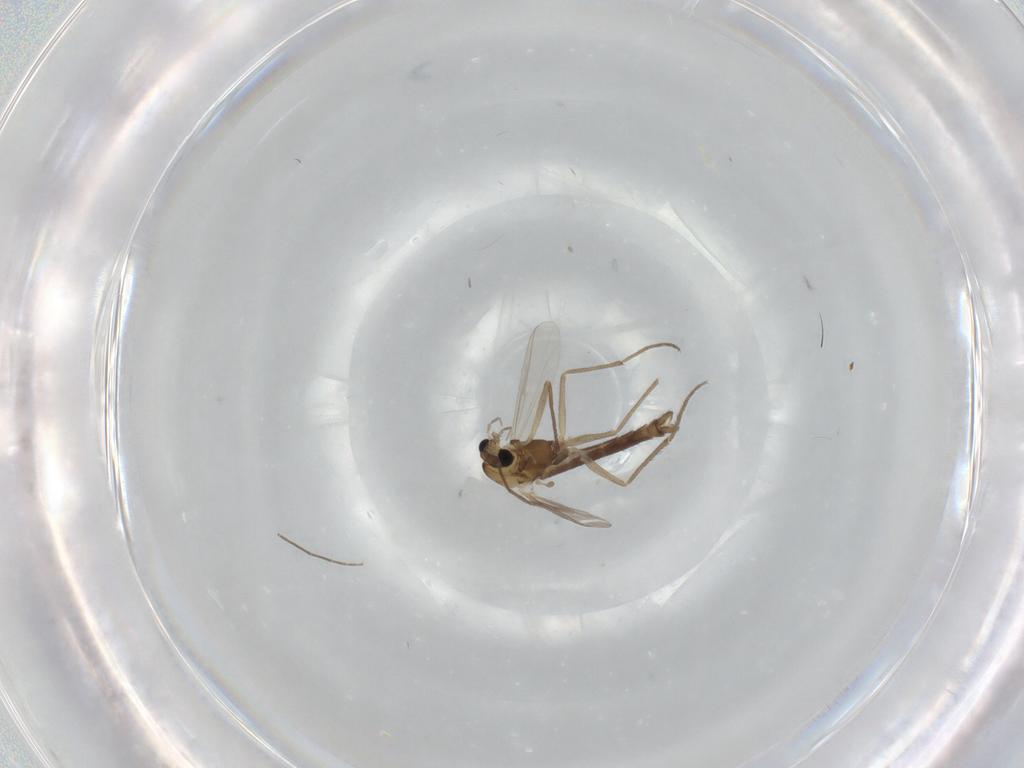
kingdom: Animalia
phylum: Arthropoda
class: Insecta
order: Diptera
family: Chironomidae
